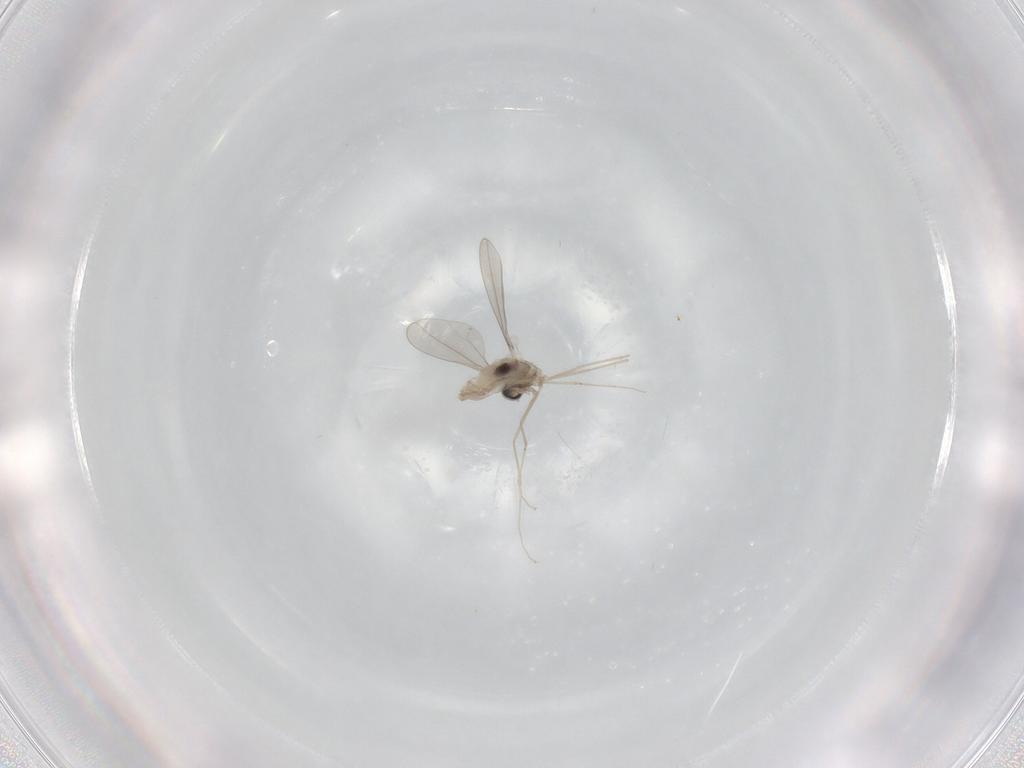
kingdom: Animalia
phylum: Arthropoda
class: Insecta
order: Diptera
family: Cecidomyiidae
